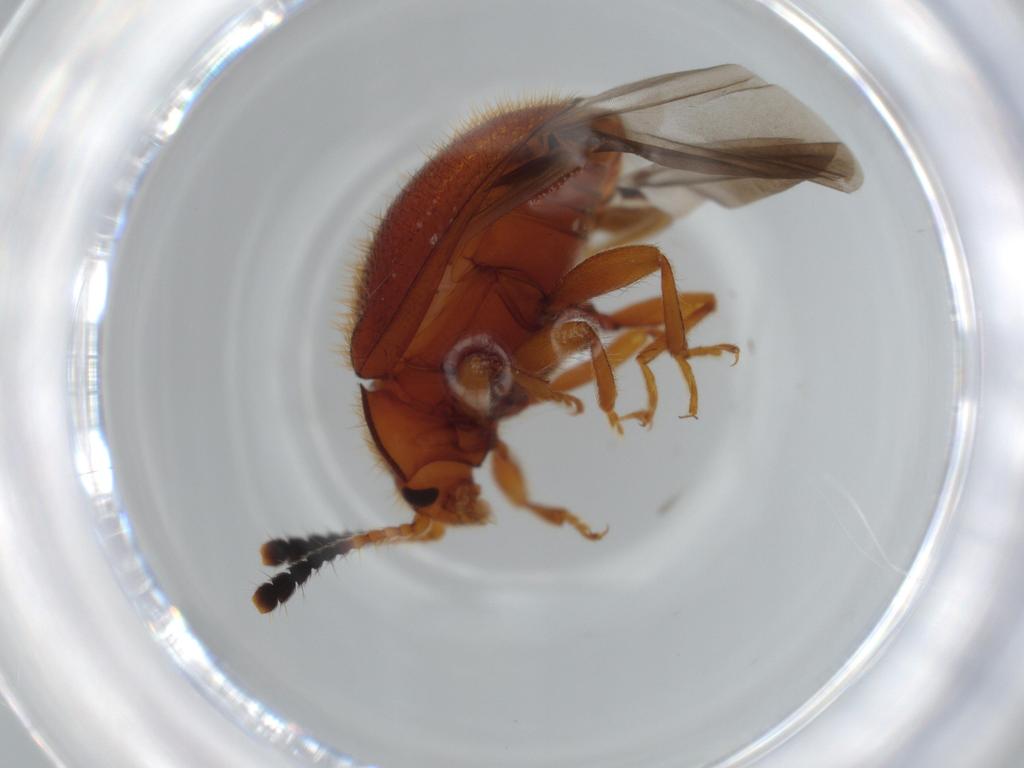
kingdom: Animalia
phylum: Arthropoda
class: Insecta
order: Coleoptera
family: Endomychidae
